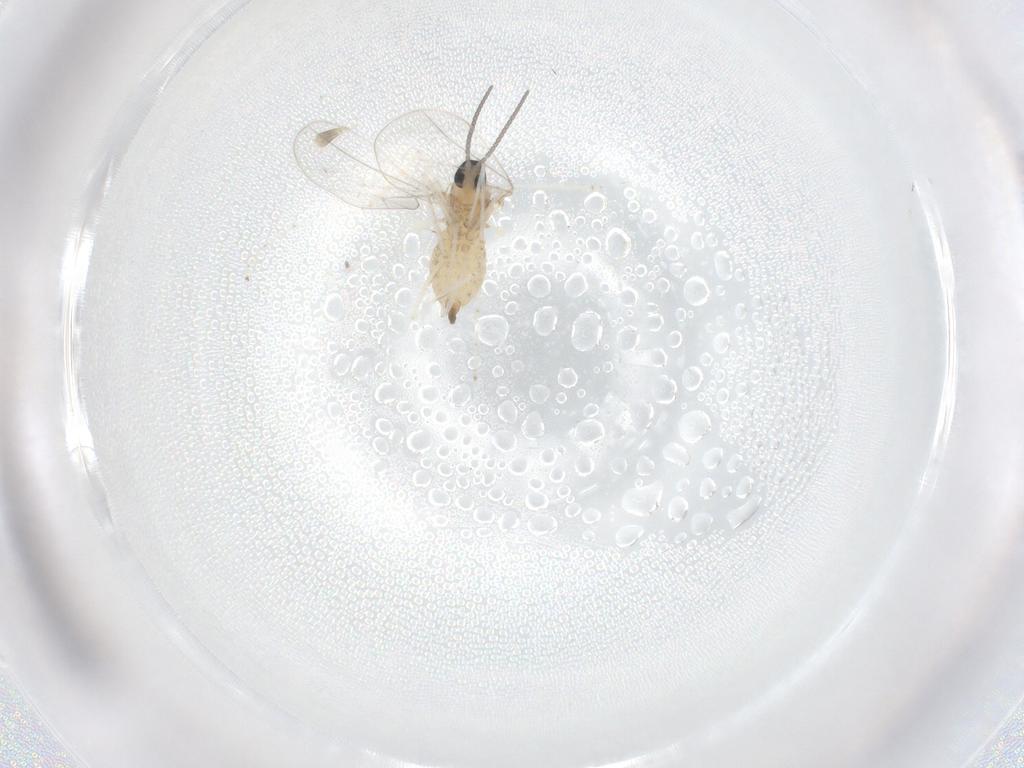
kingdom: Animalia
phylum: Arthropoda
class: Insecta
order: Diptera
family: Cecidomyiidae
